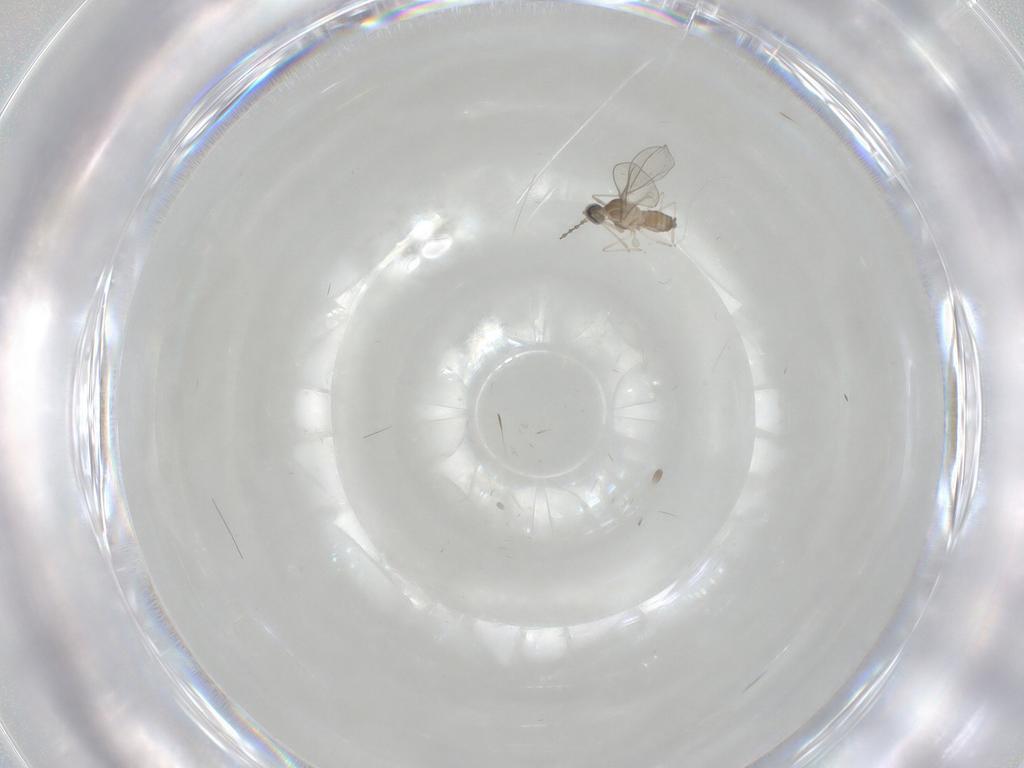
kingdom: Animalia
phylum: Arthropoda
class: Insecta
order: Diptera
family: Cecidomyiidae
